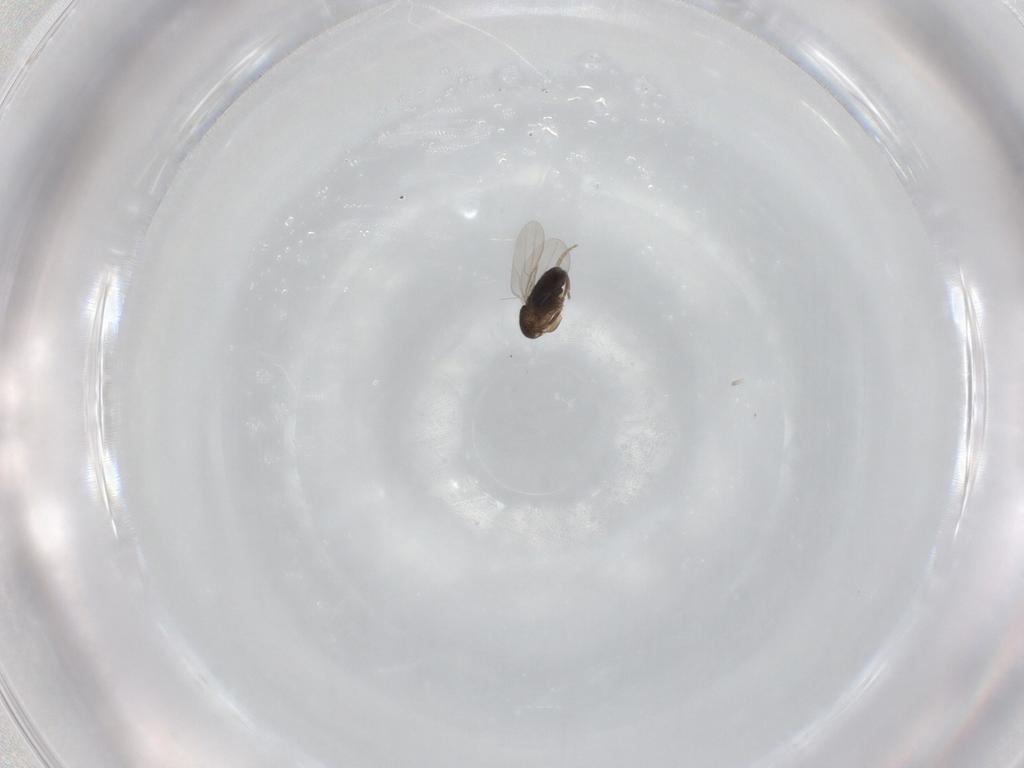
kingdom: Animalia
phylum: Arthropoda
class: Insecta
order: Diptera
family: Phoridae
